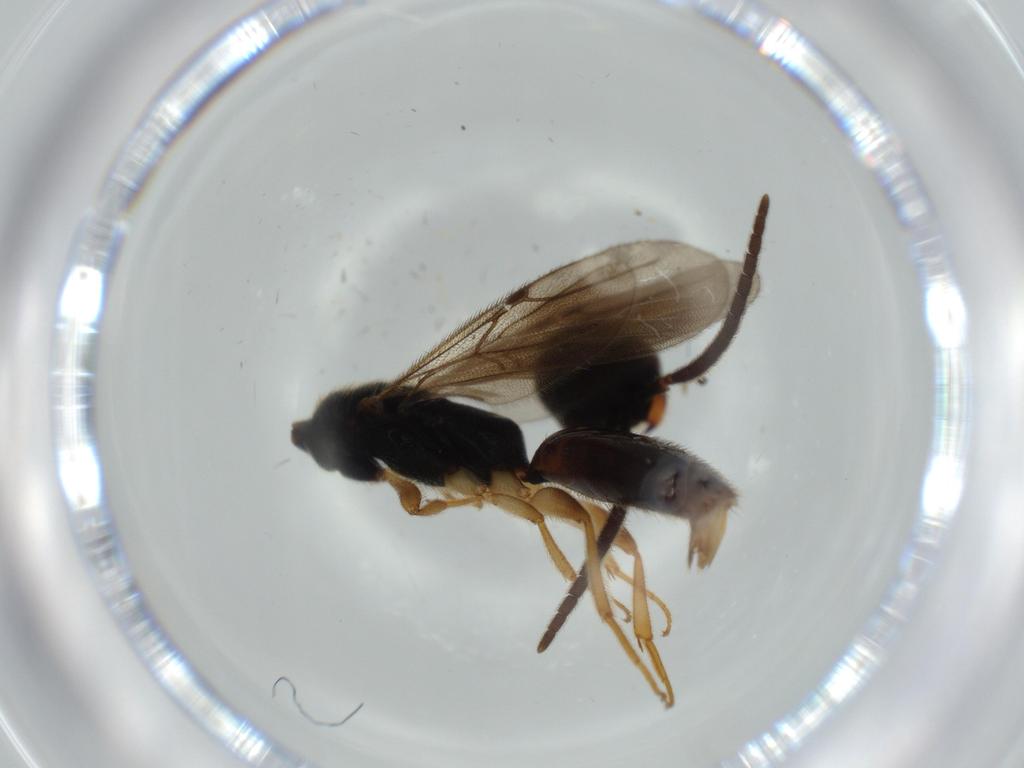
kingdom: Animalia
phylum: Arthropoda
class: Insecta
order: Hymenoptera
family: Bethylidae
